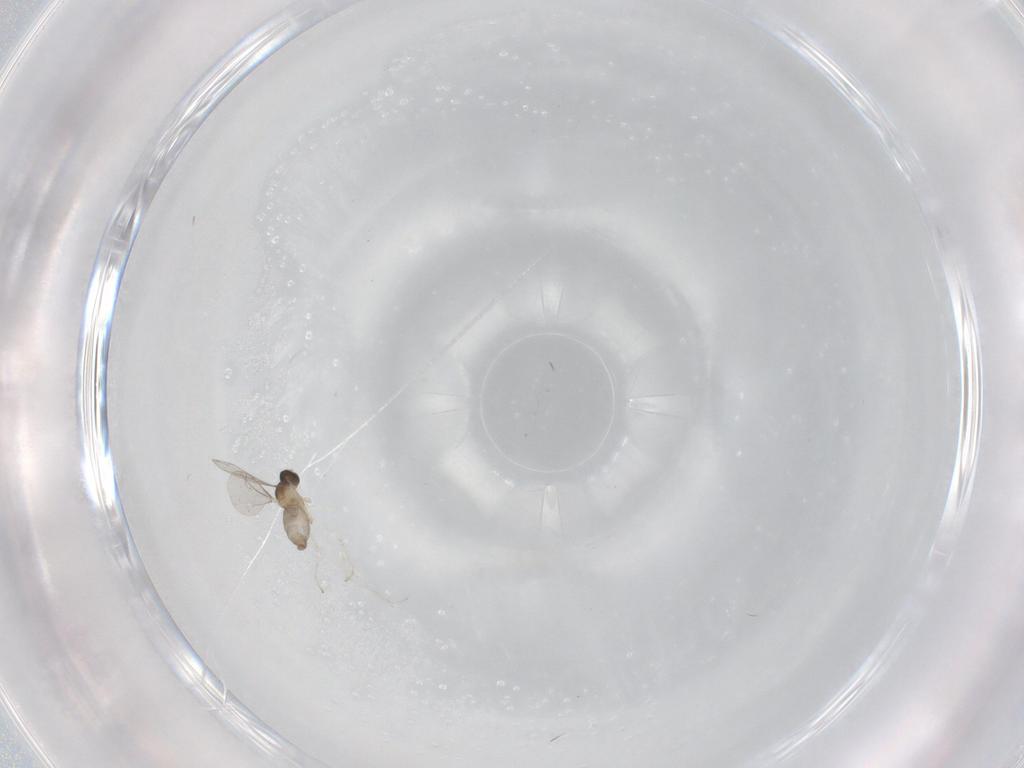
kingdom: Animalia
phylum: Arthropoda
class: Insecta
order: Diptera
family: Cecidomyiidae
